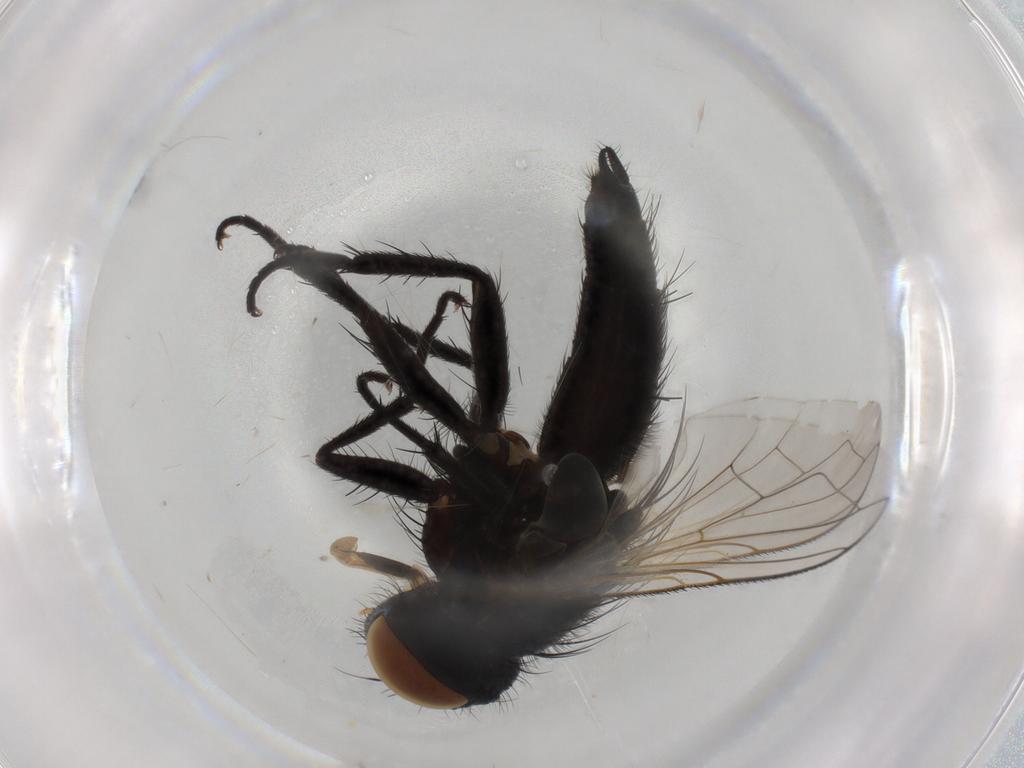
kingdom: Animalia
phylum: Arthropoda
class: Insecta
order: Diptera
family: Tachinidae
